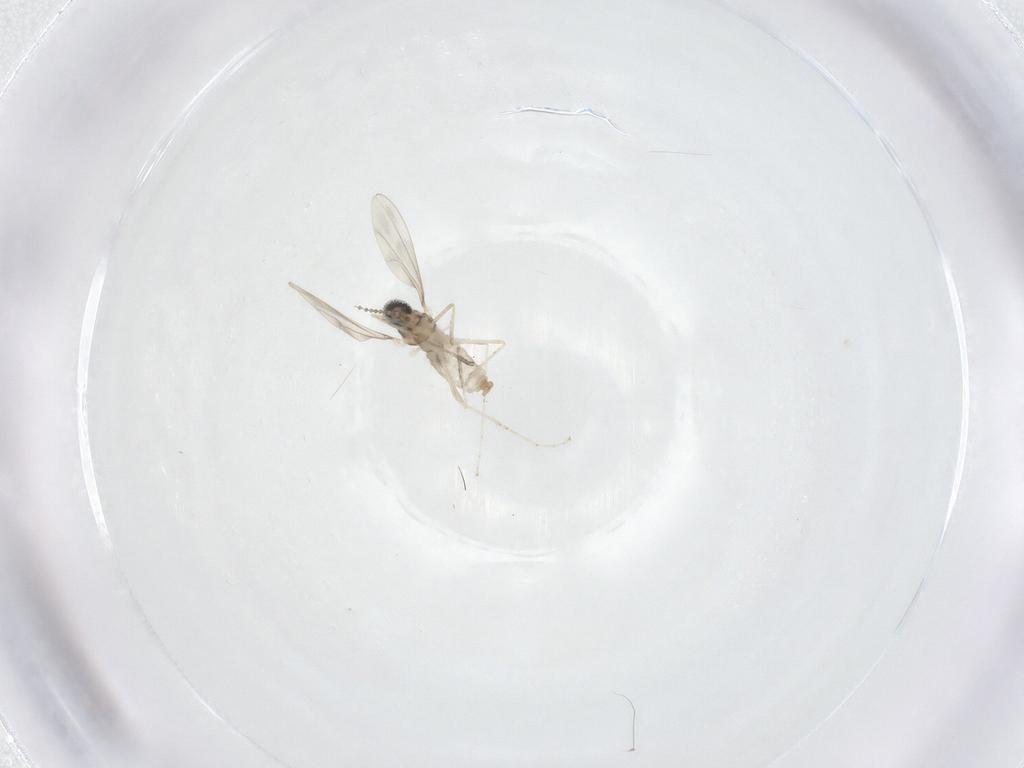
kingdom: Animalia
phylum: Arthropoda
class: Insecta
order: Diptera
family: Cecidomyiidae
